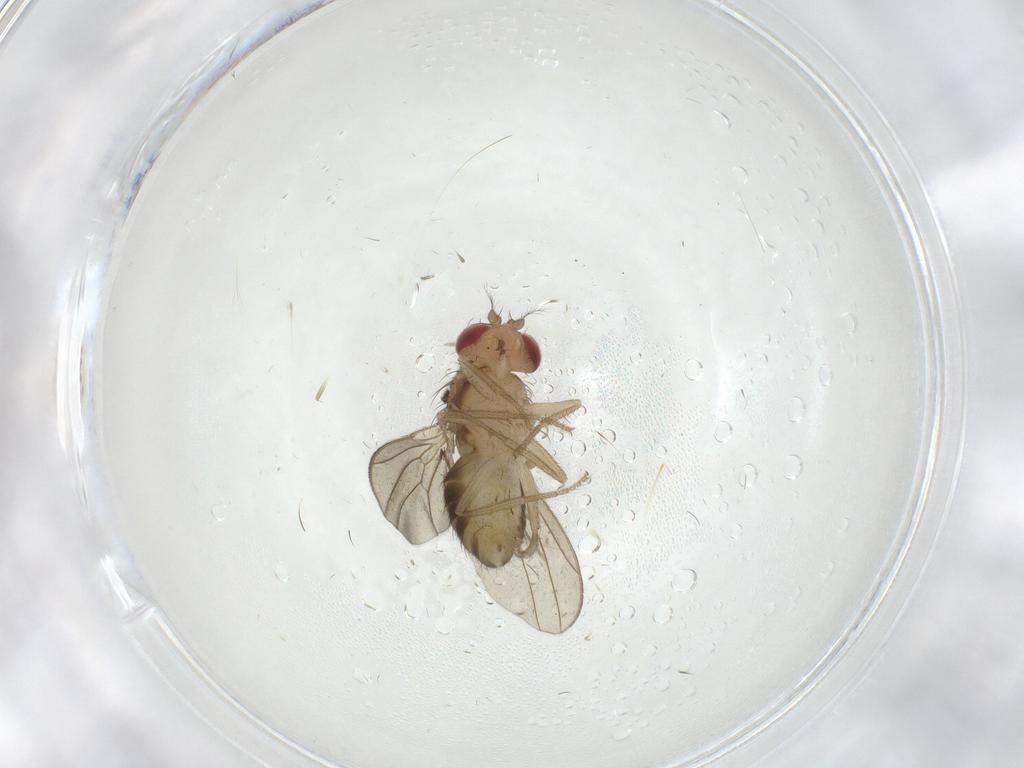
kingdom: Animalia
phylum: Arthropoda
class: Insecta
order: Diptera
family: Drosophilidae
